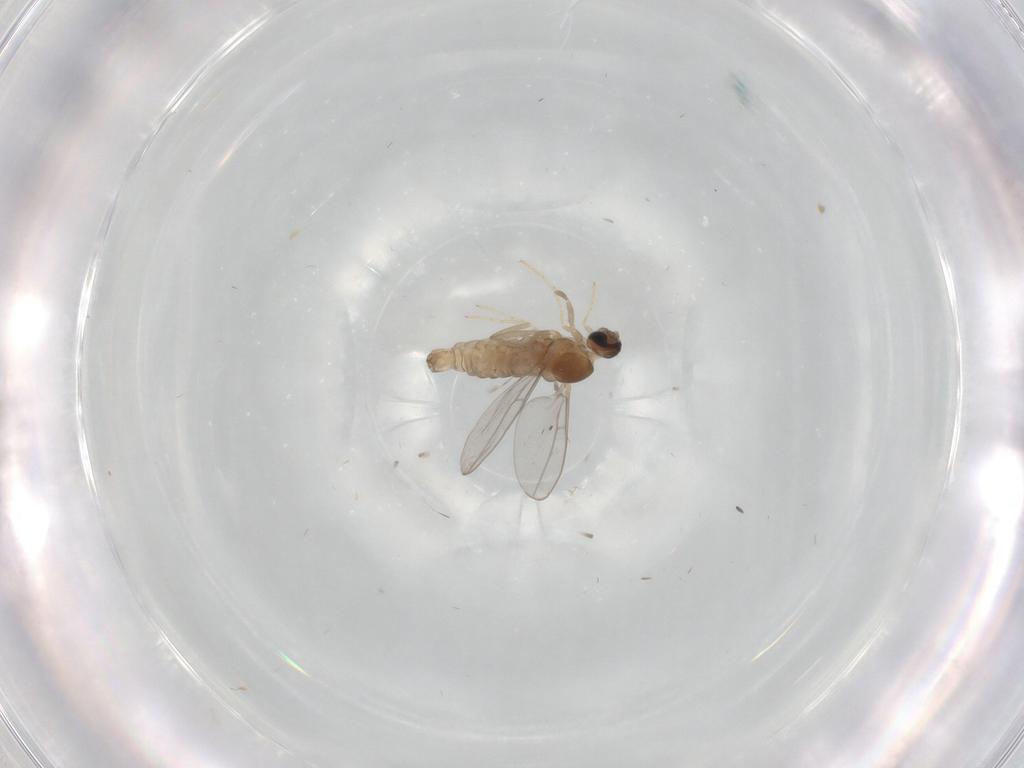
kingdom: Animalia
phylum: Arthropoda
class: Insecta
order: Diptera
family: Cecidomyiidae
